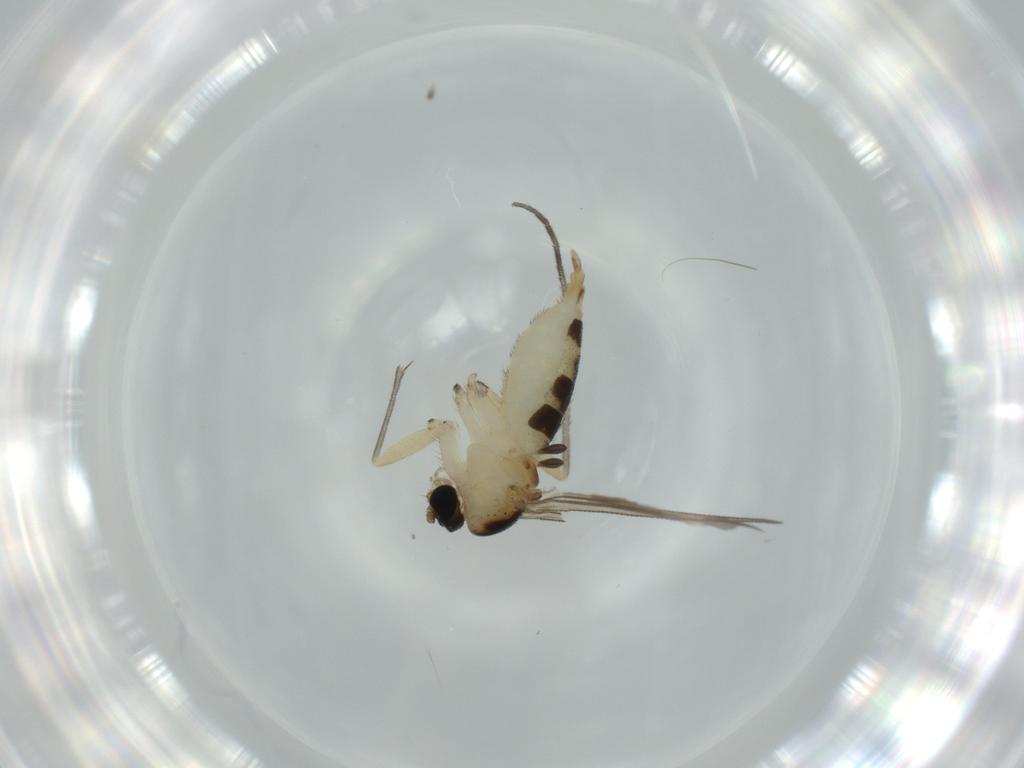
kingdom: Animalia
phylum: Arthropoda
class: Insecta
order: Diptera
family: Sciaridae
